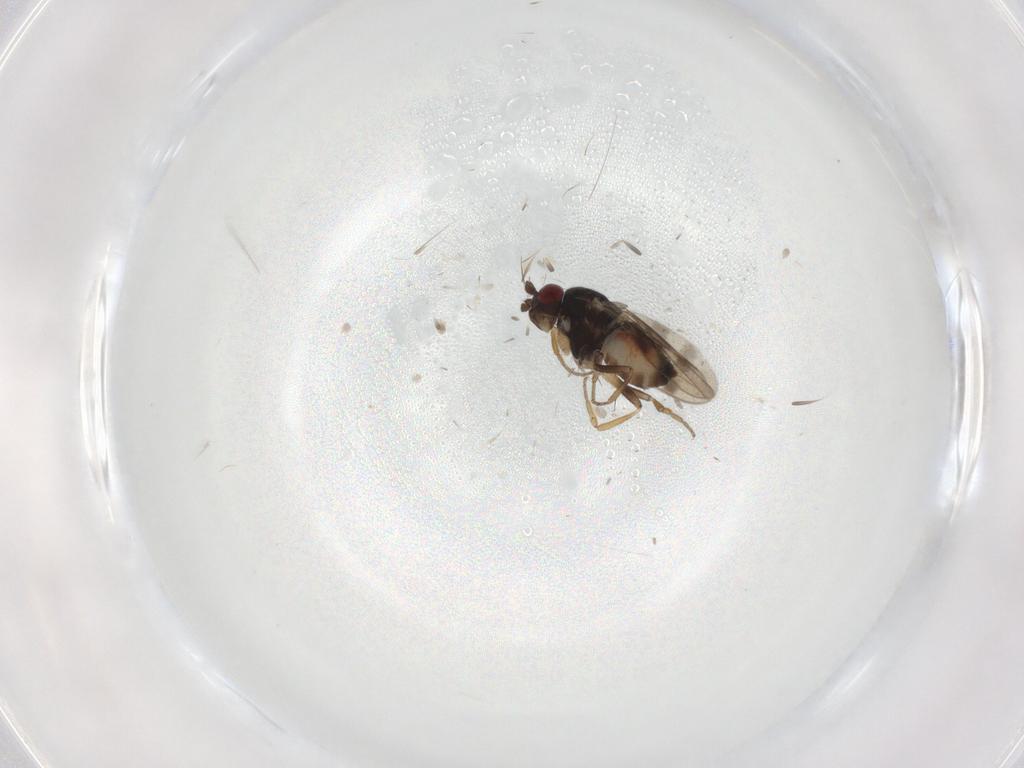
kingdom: Animalia
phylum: Arthropoda
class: Insecta
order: Diptera
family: Sphaeroceridae
